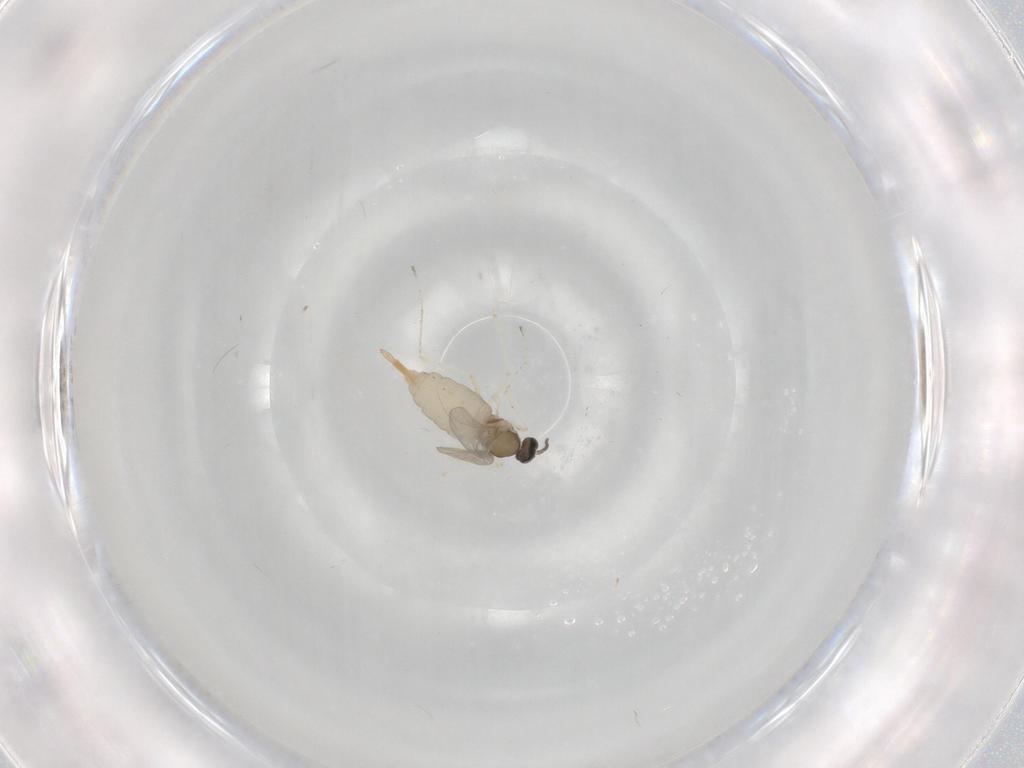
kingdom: Animalia
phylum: Arthropoda
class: Insecta
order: Diptera
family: Cecidomyiidae
